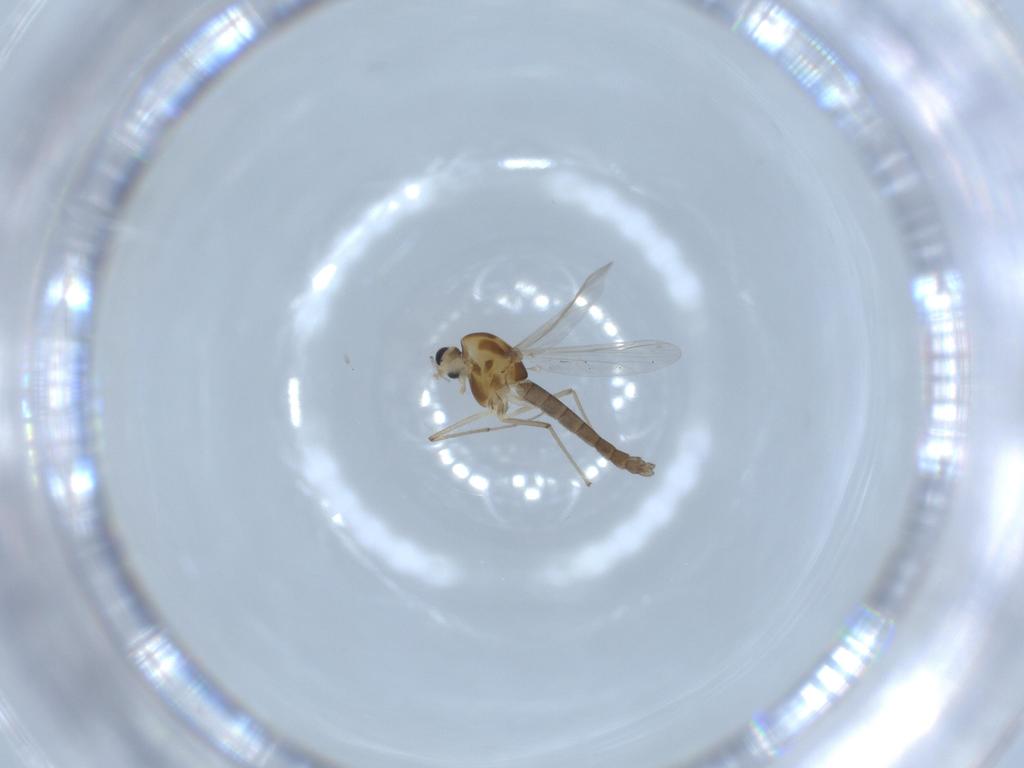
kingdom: Animalia
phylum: Arthropoda
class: Insecta
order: Diptera
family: Chironomidae
